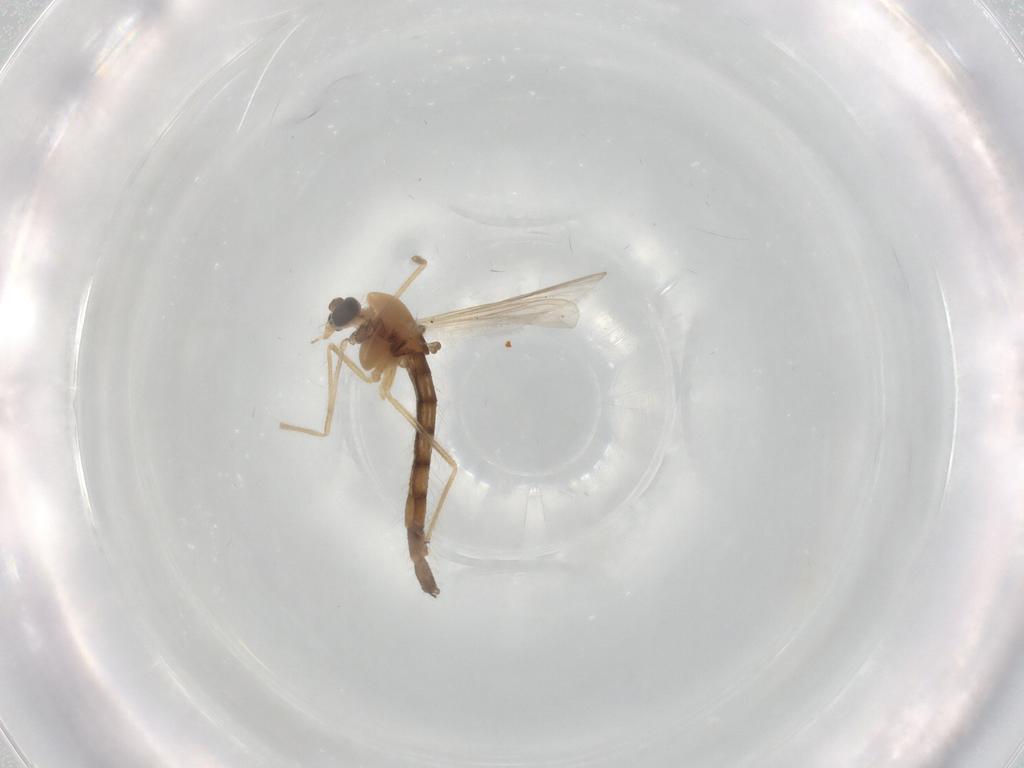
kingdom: Animalia
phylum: Arthropoda
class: Insecta
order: Diptera
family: Chironomidae
